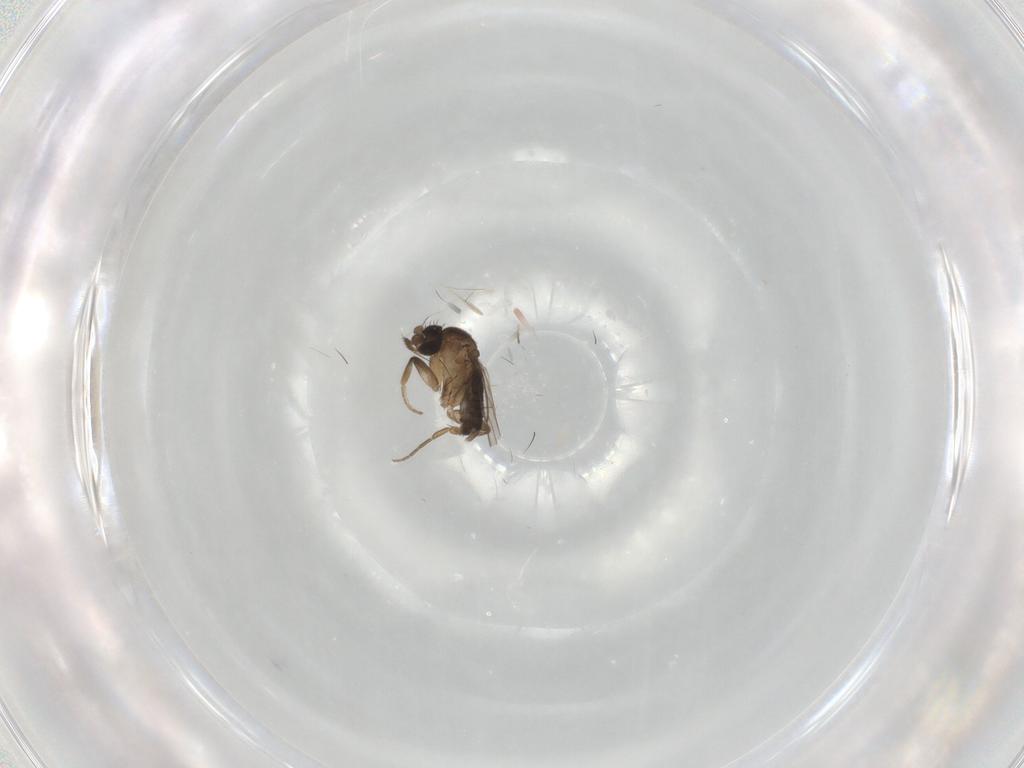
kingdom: Animalia
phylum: Arthropoda
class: Insecta
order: Diptera
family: Phoridae
